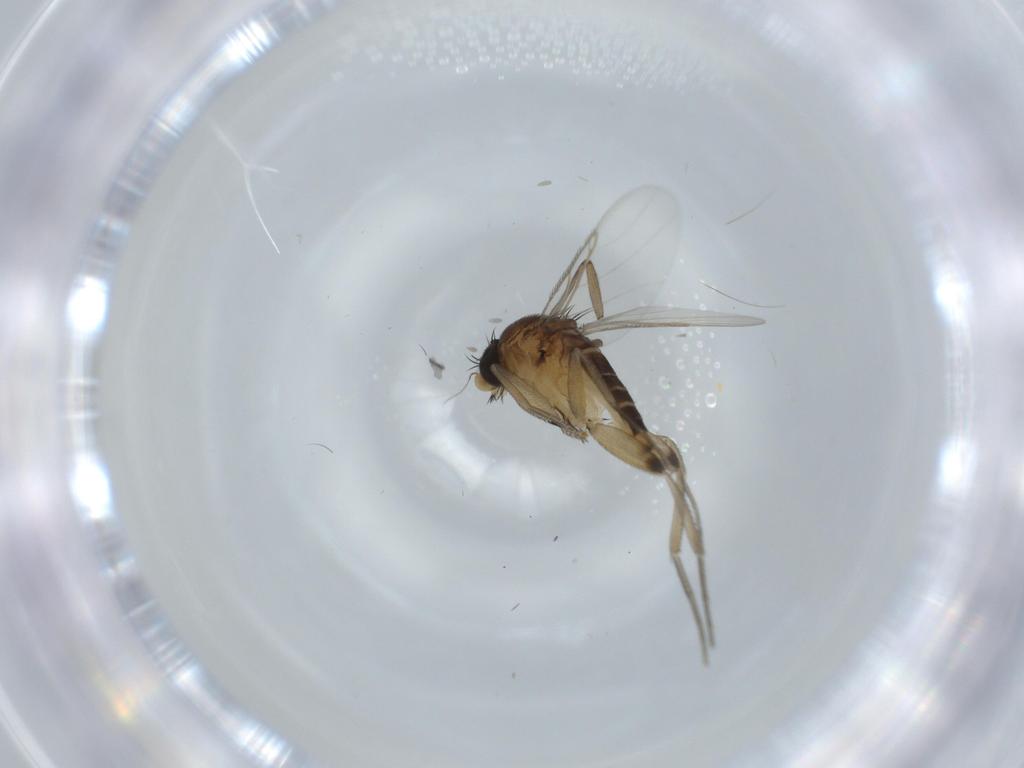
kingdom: Animalia
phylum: Arthropoda
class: Insecta
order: Diptera
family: Phoridae
